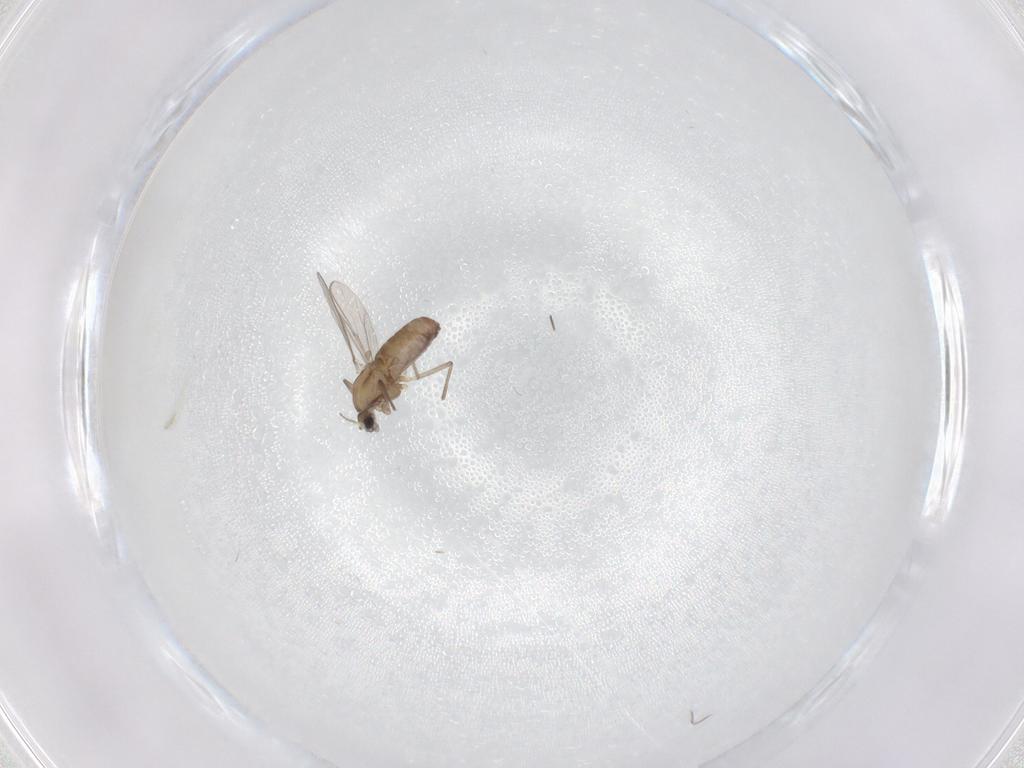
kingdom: Animalia
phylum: Arthropoda
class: Insecta
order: Diptera
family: Chironomidae
